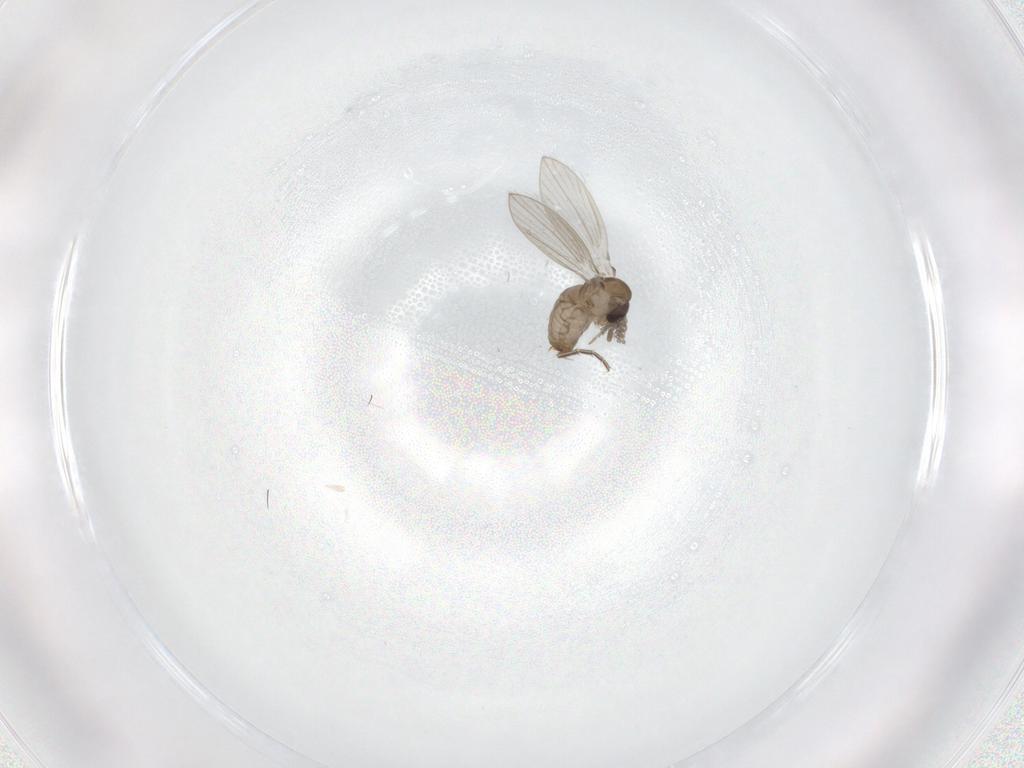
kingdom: Animalia
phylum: Arthropoda
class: Insecta
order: Diptera
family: Psychodidae
